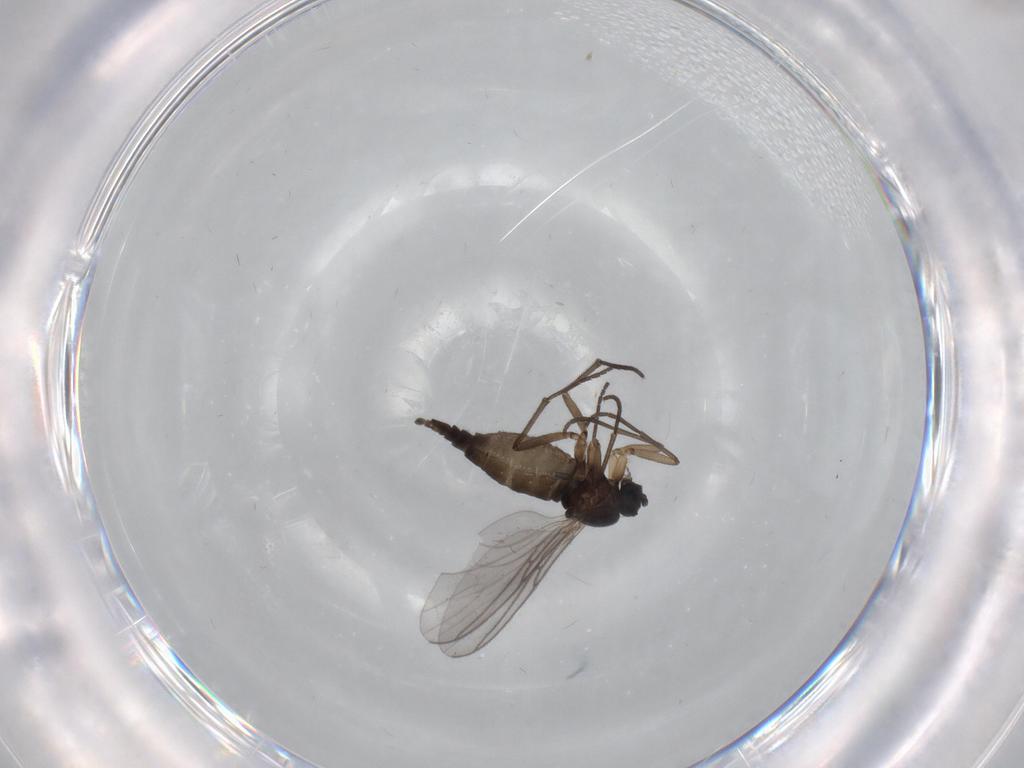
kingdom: Animalia
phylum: Arthropoda
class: Insecta
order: Diptera
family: Sciaridae
